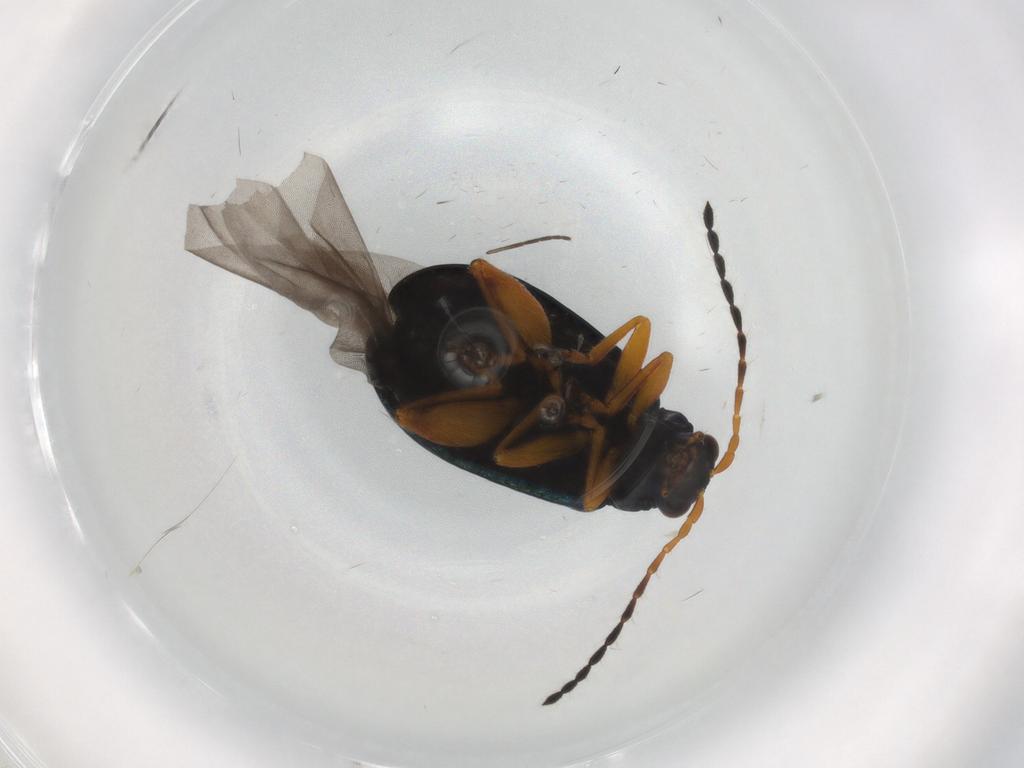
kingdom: Animalia
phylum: Arthropoda
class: Insecta
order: Coleoptera
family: Chrysomelidae
